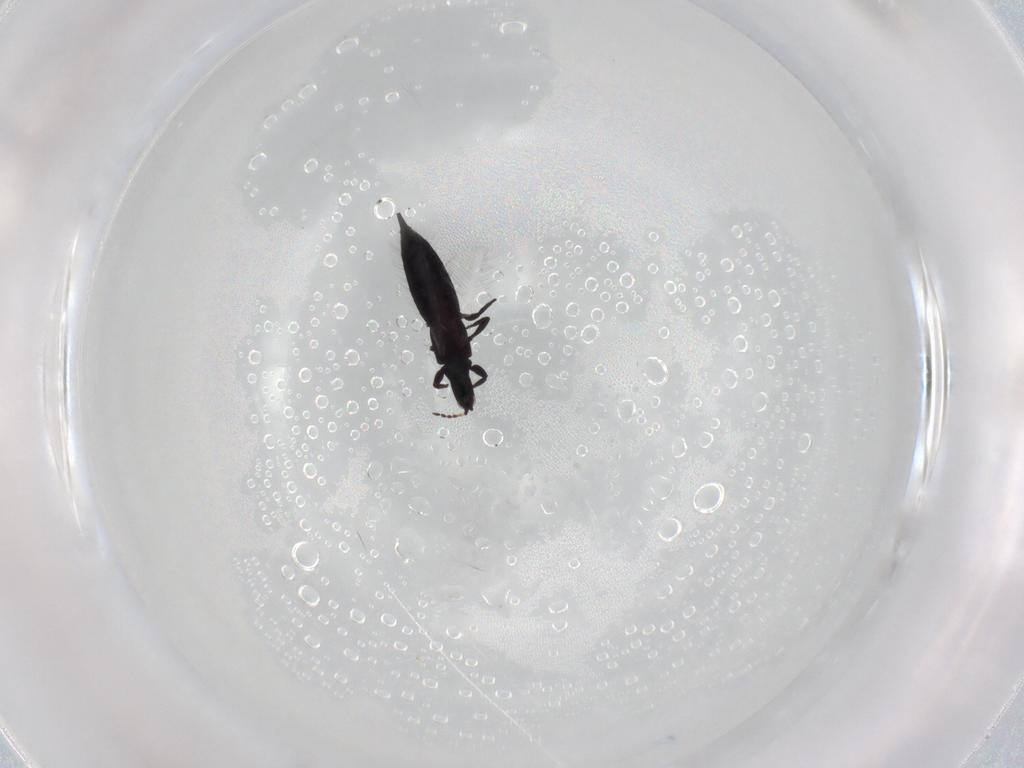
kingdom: Animalia
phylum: Arthropoda
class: Insecta
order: Thysanoptera
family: Phlaeothripidae
